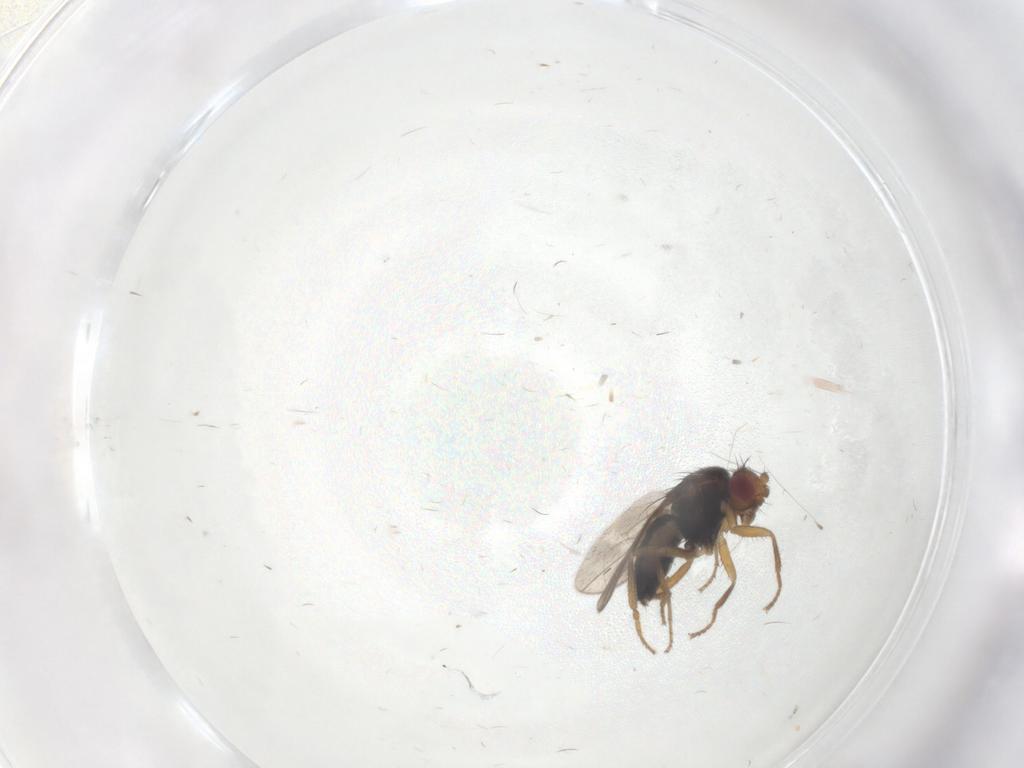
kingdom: Animalia
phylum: Arthropoda
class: Insecta
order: Diptera
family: Sphaeroceridae
